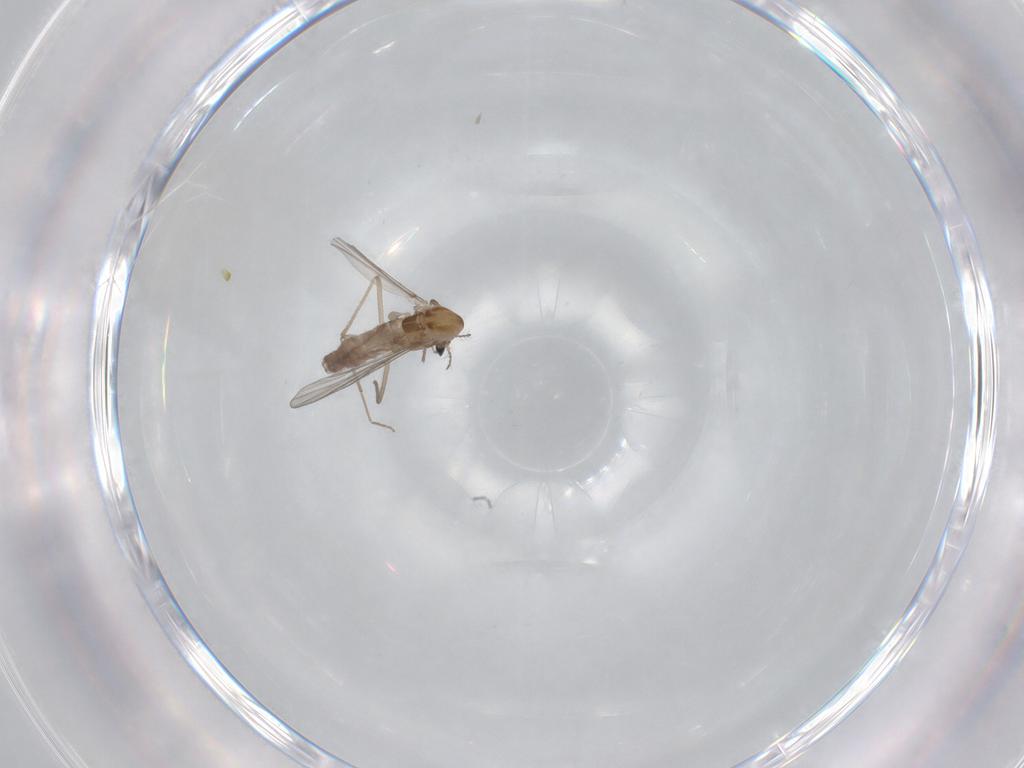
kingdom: Animalia
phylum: Arthropoda
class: Insecta
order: Diptera
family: Chironomidae
